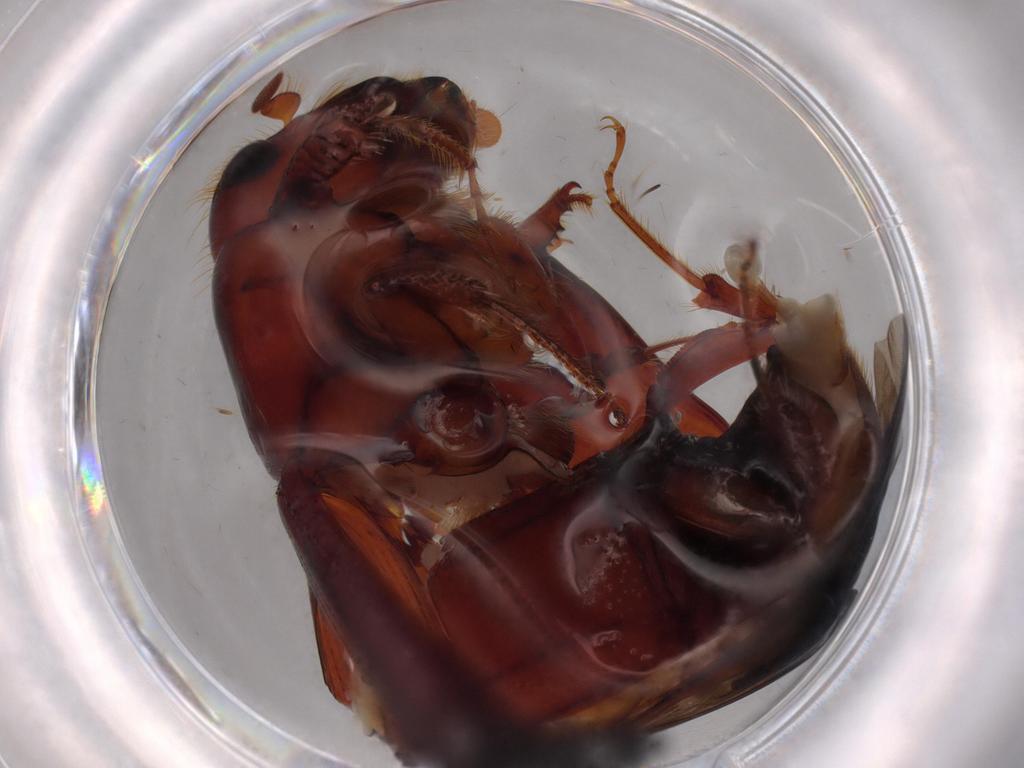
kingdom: Animalia
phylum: Arthropoda
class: Insecta
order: Coleoptera
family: Curculionidae
